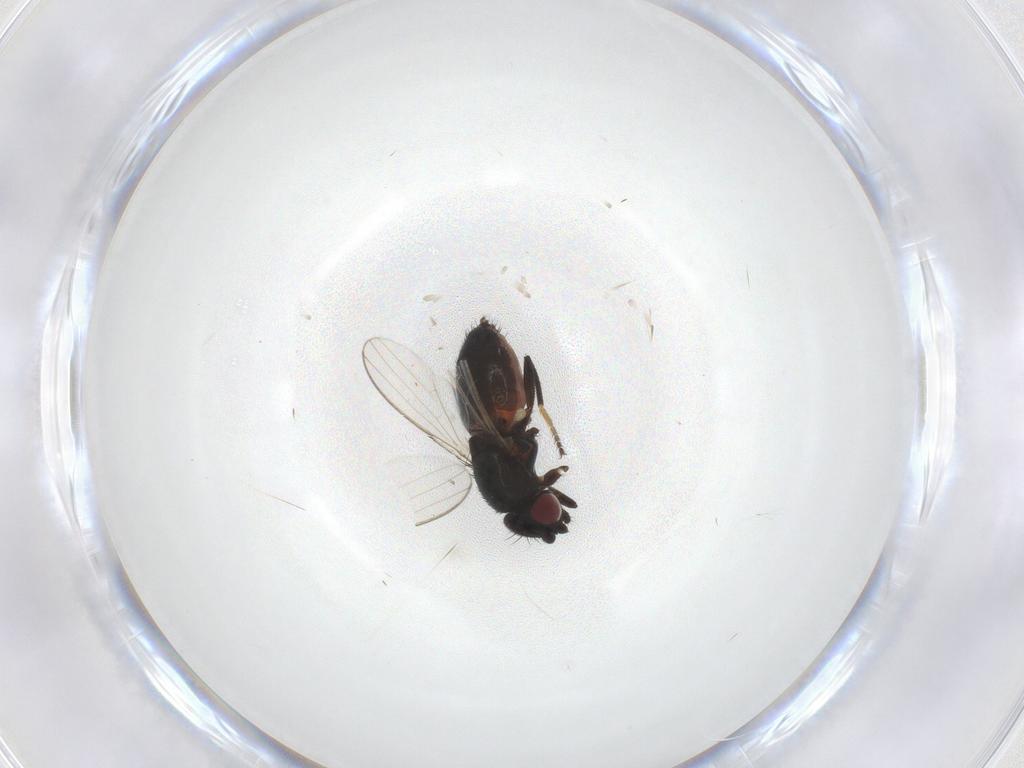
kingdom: Animalia
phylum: Arthropoda
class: Insecta
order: Diptera
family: Milichiidae
